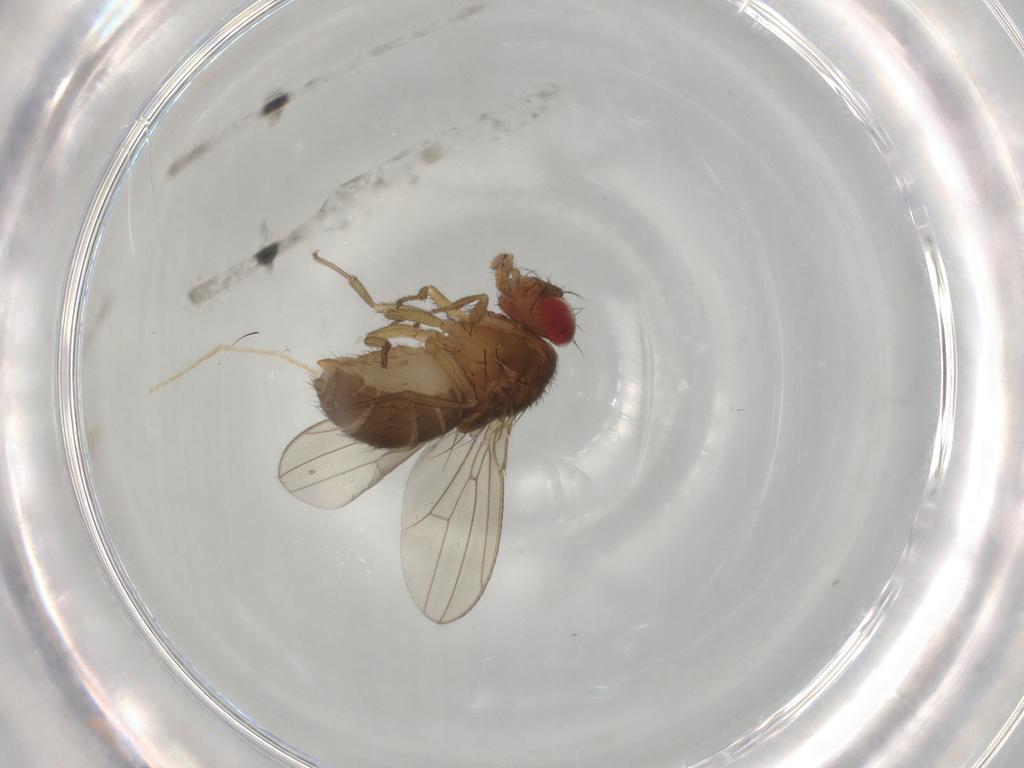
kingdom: Animalia
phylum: Arthropoda
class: Insecta
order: Diptera
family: Drosophilidae
